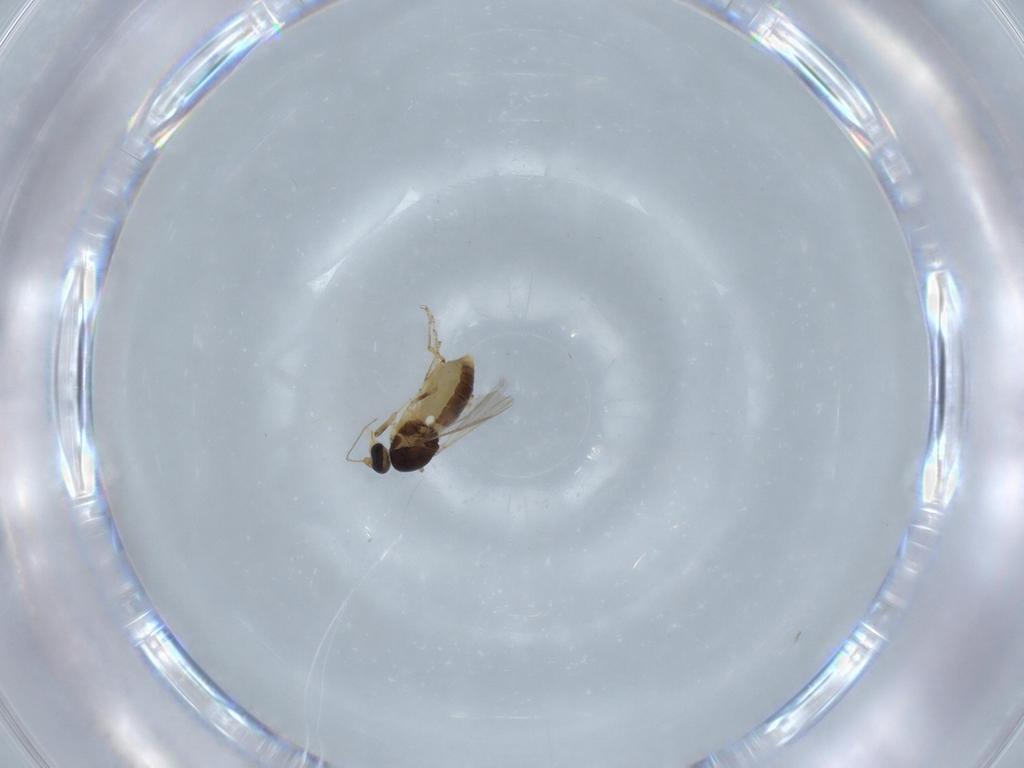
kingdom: Animalia
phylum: Arthropoda
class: Insecta
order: Diptera
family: Ceratopogonidae
